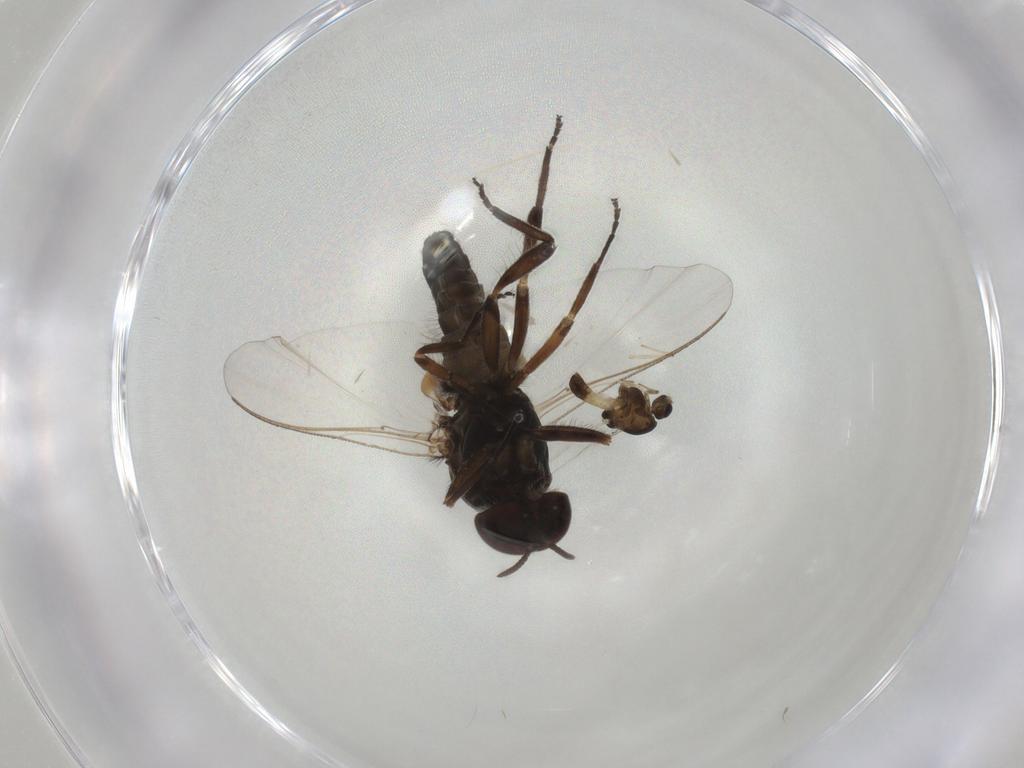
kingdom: Animalia
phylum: Arthropoda
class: Insecta
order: Diptera
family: Cecidomyiidae
